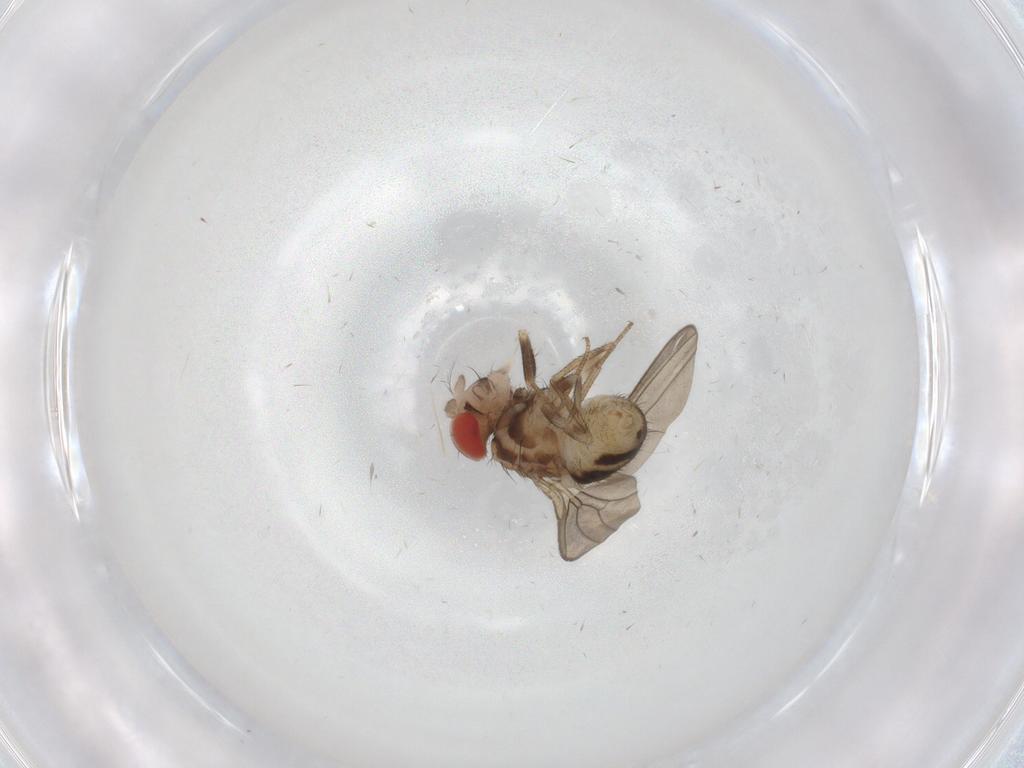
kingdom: Animalia
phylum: Arthropoda
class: Insecta
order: Diptera
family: Drosophilidae
